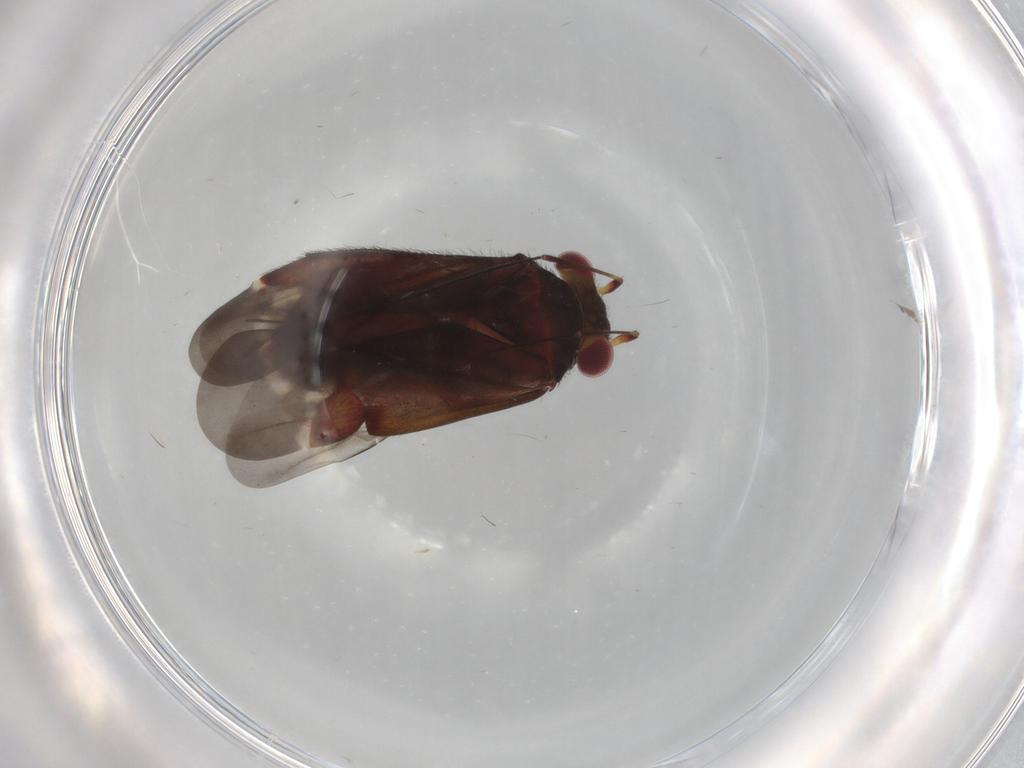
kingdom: Animalia
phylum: Arthropoda
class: Insecta
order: Hemiptera
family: Miridae
